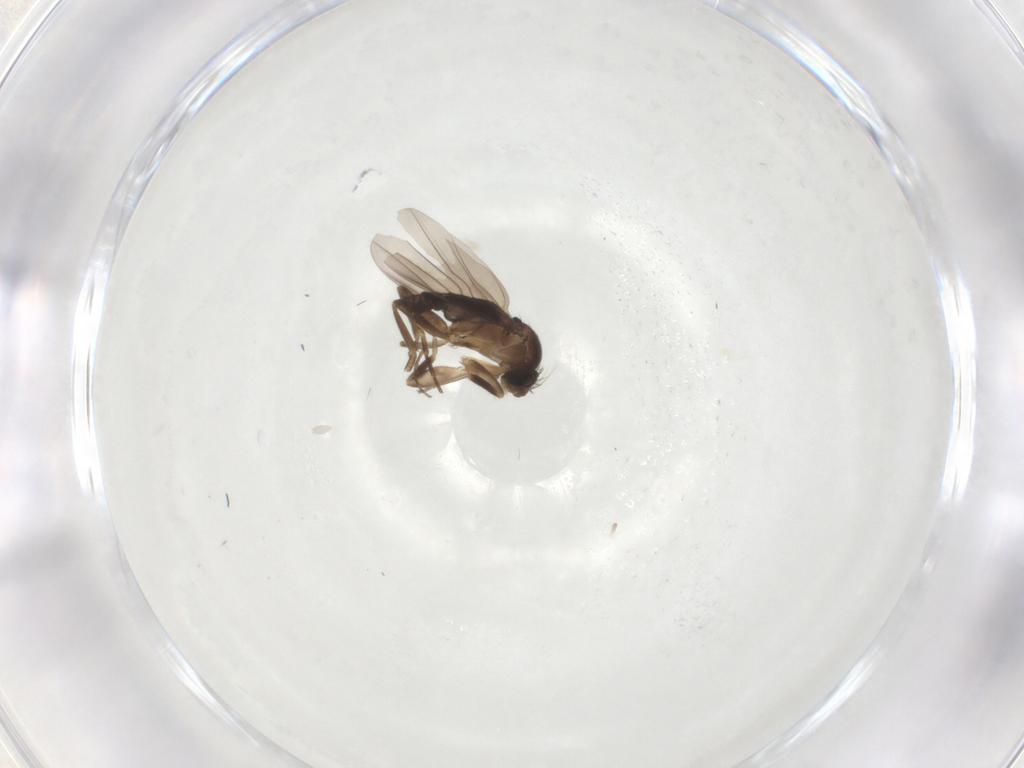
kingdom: Animalia
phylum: Arthropoda
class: Insecta
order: Diptera
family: Phoridae
